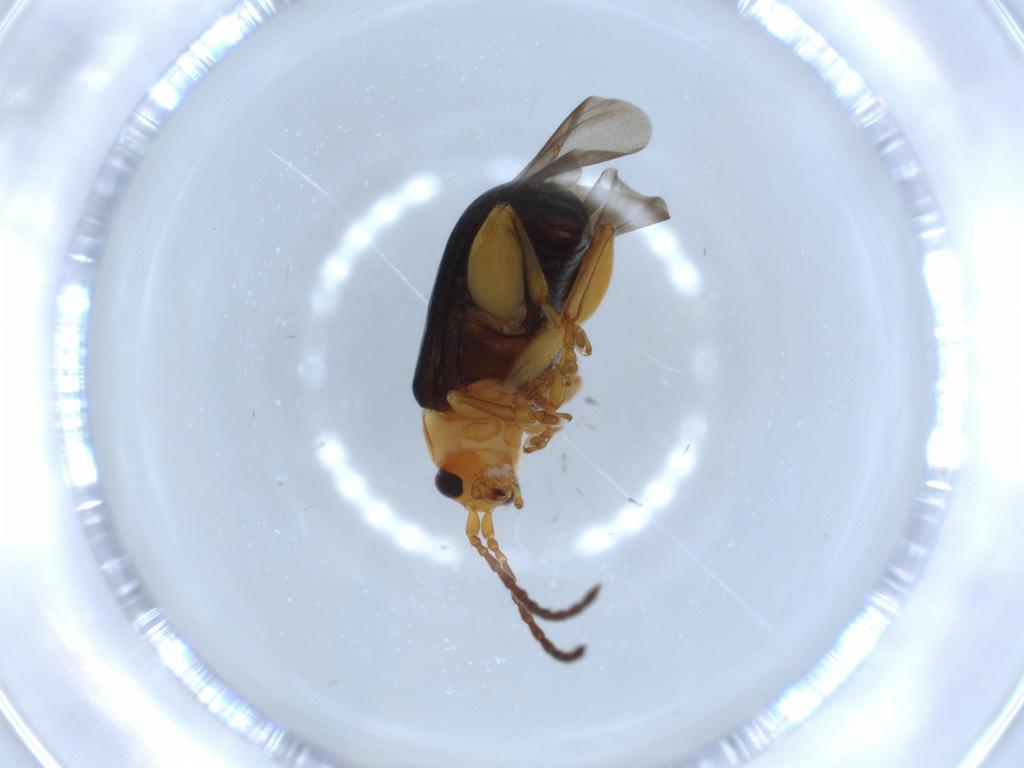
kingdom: Animalia
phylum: Arthropoda
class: Insecta
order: Coleoptera
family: Chrysomelidae
